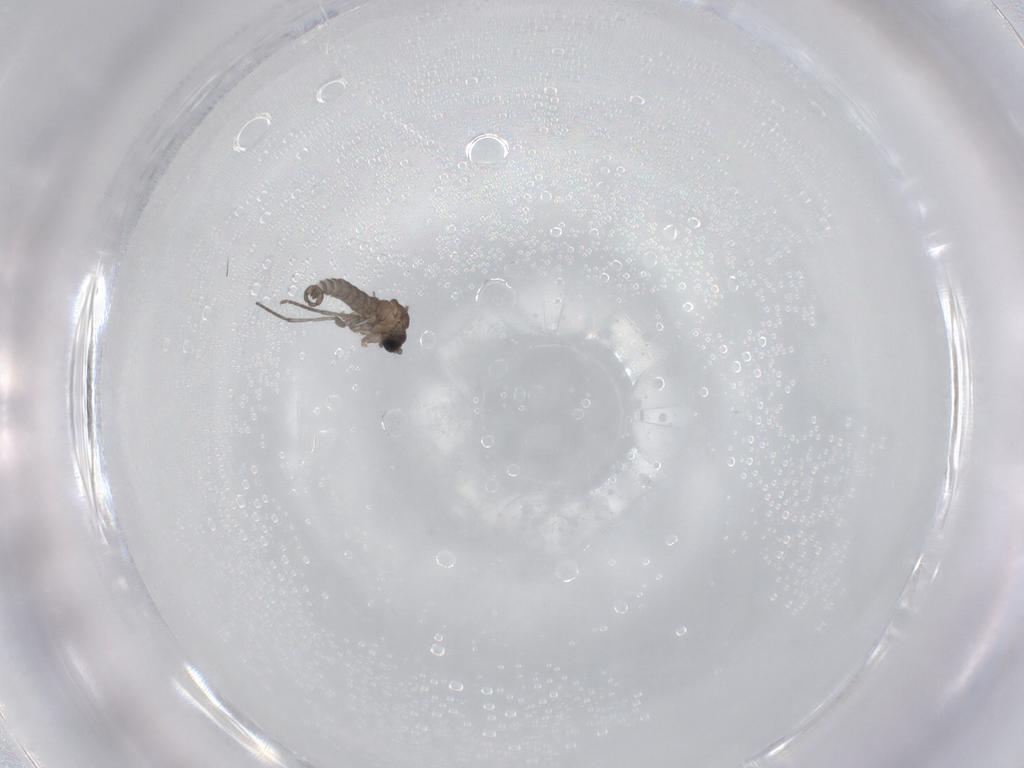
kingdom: Animalia
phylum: Arthropoda
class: Insecta
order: Diptera
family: Sciaridae
